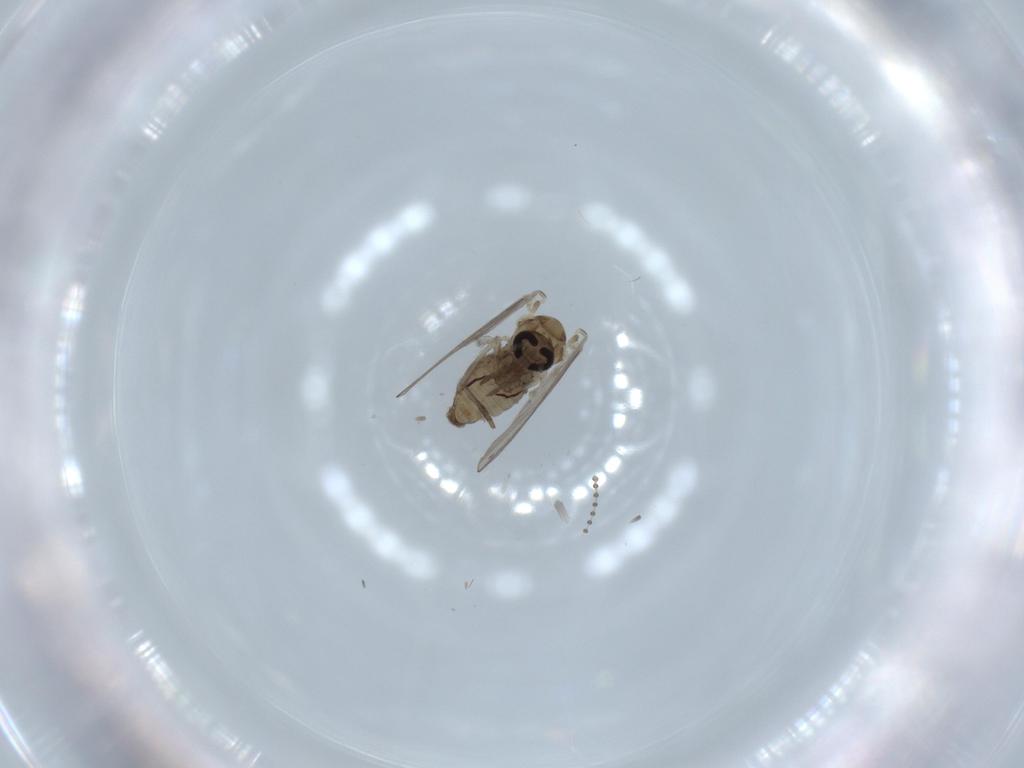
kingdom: Animalia
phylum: Arthropoda
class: Insecta
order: Diptera
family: Psychodidae
